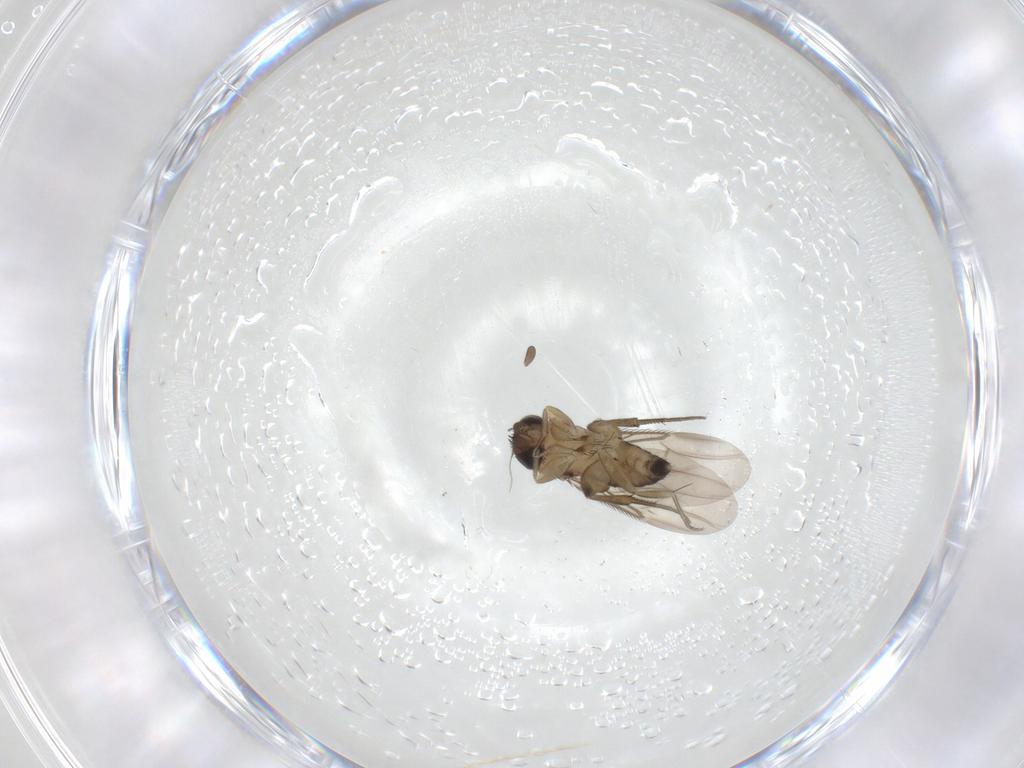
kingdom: Animalia
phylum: Arthropoda
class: Insecta
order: Diptera
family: Phoridae
